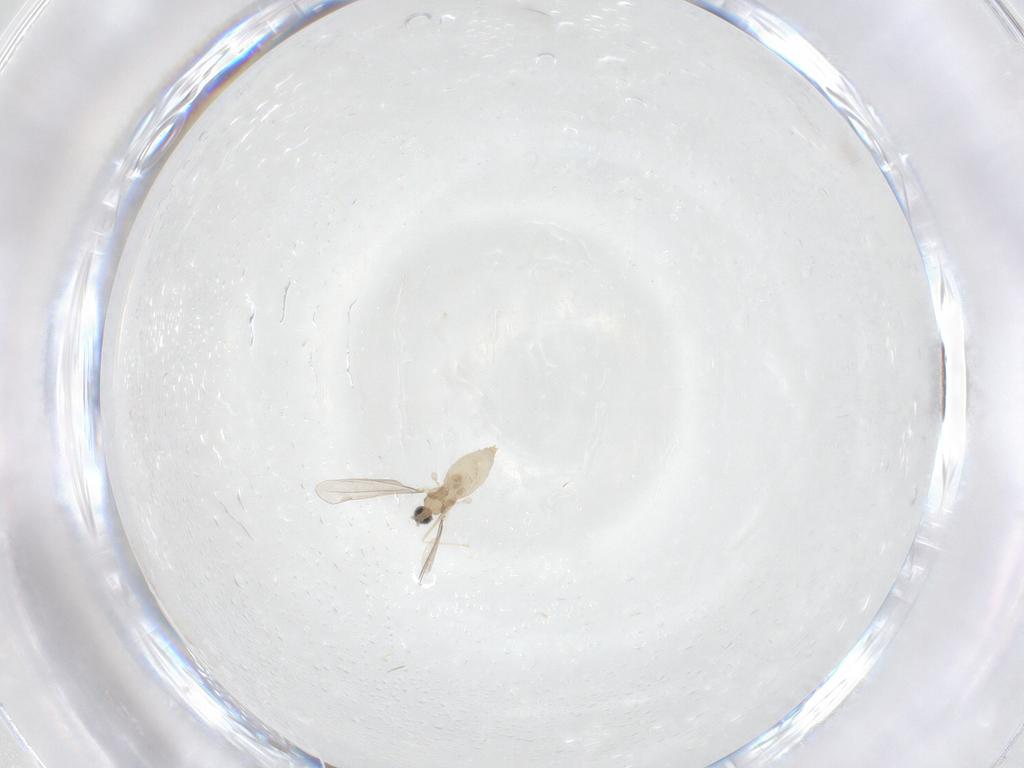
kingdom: Animalia
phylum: Arthropoda
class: Insecta
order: Diptera
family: Cecidomyiidae
